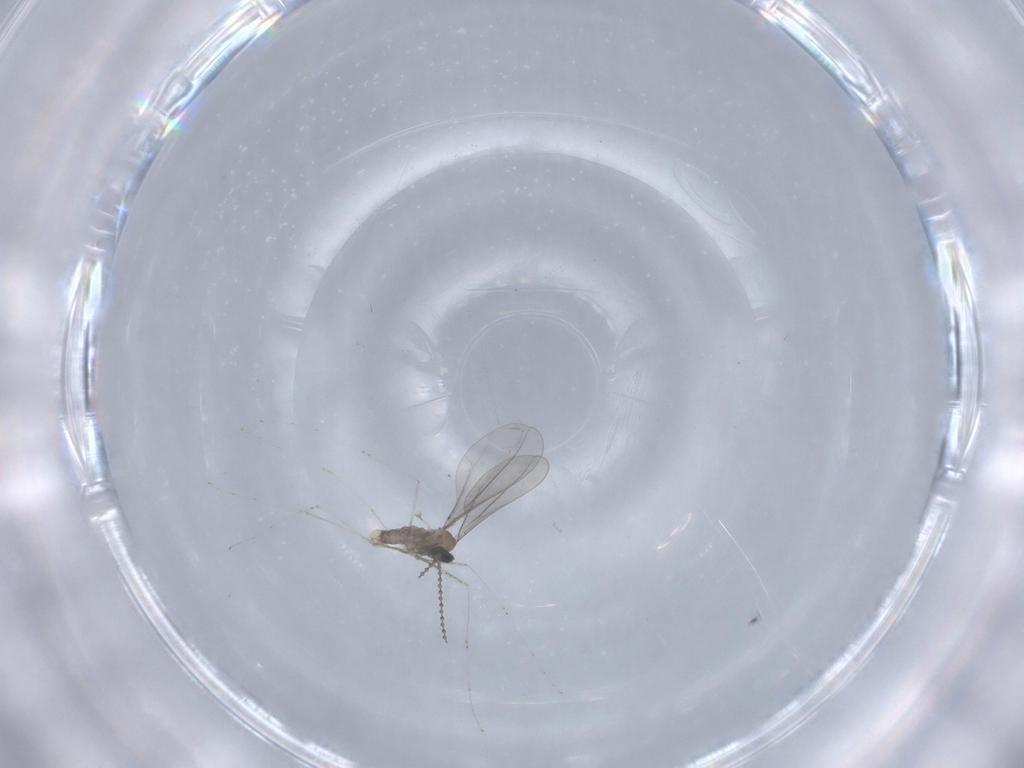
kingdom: Animalia
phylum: Arthropoda
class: Insecta
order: Diptera
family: Cecidomyiidae
